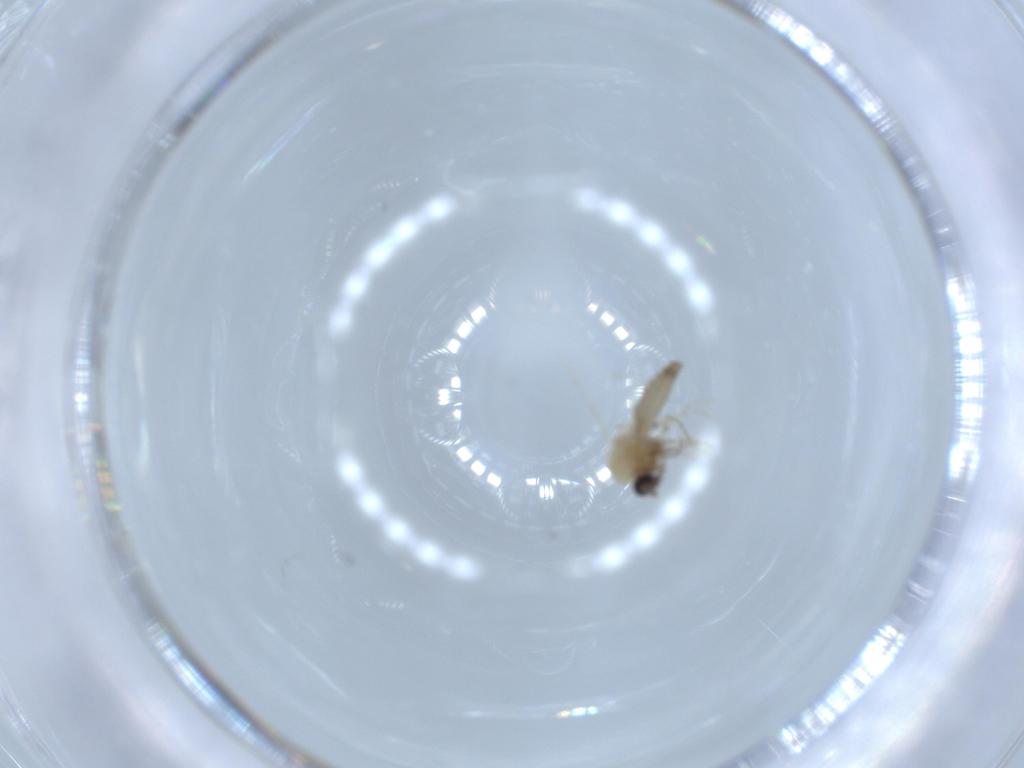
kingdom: Animalia
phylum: Arthropoda
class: Insecta
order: Diptera
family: Ceratopogonidae
